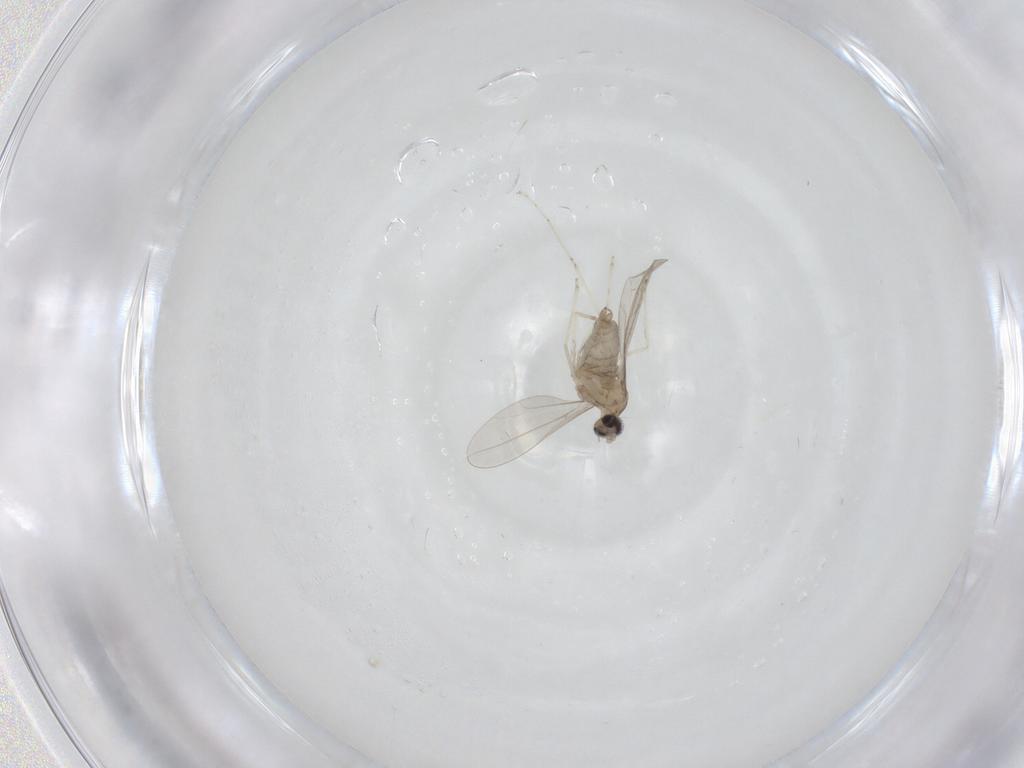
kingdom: Animalia
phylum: Arthropoda
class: Insecta
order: Diptera
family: Cecidomyiidae
